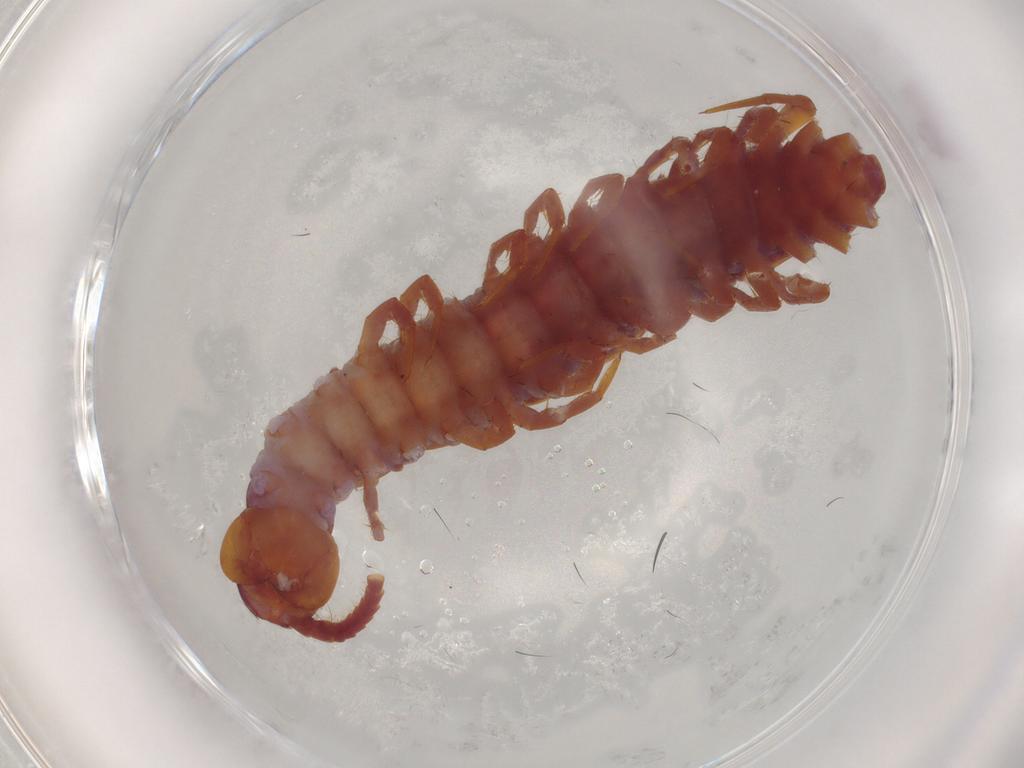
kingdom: Animalia
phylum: Arthropoda
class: Chilopoda
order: Lithobiomorpha
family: Lithobiidae
